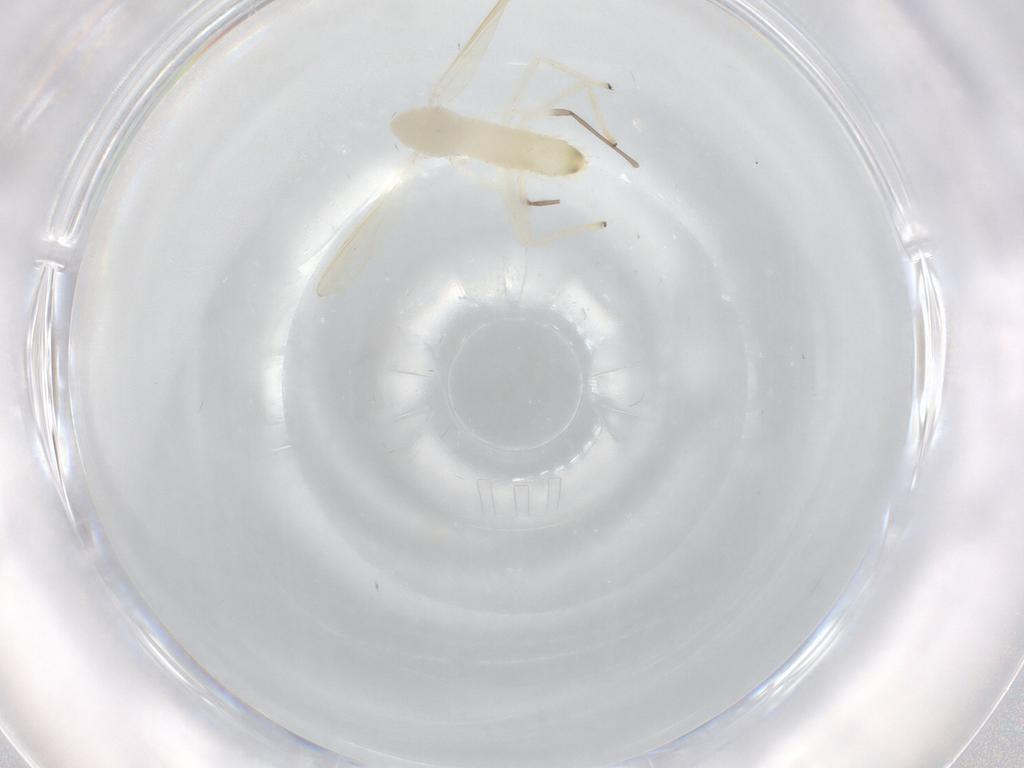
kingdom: Animalia
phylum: Arthropoda
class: Insecta
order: Diptera
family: Chironomidae
